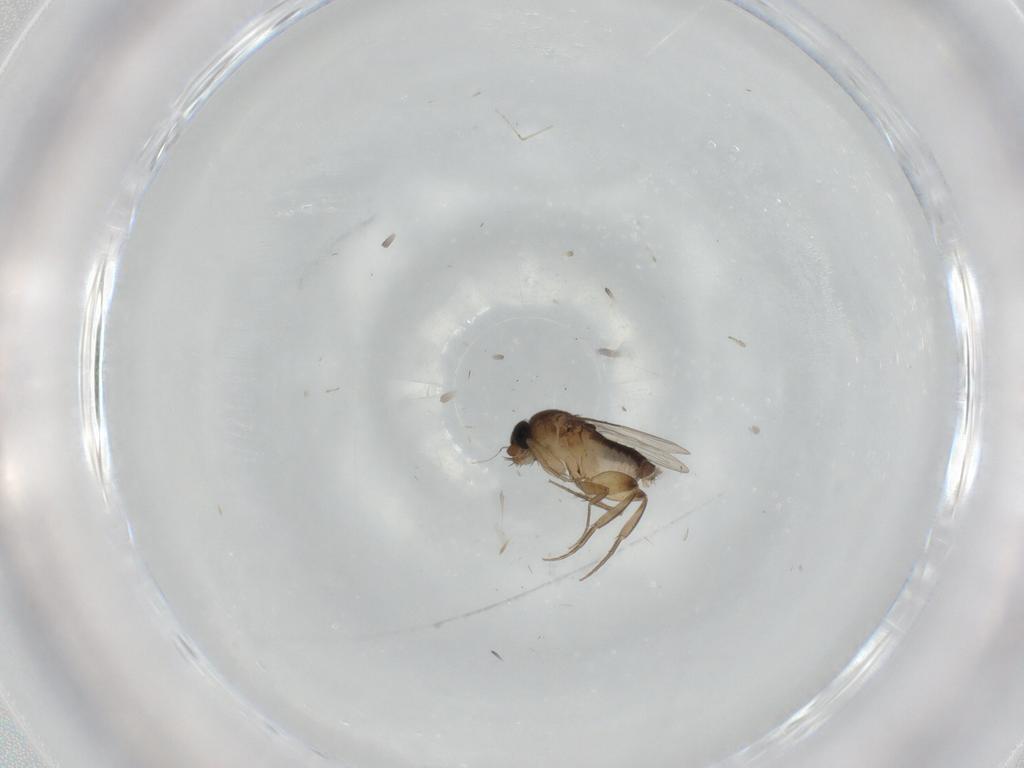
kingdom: Animalia
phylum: Arthropoda
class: Insecta
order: Diptera
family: Phoridae
